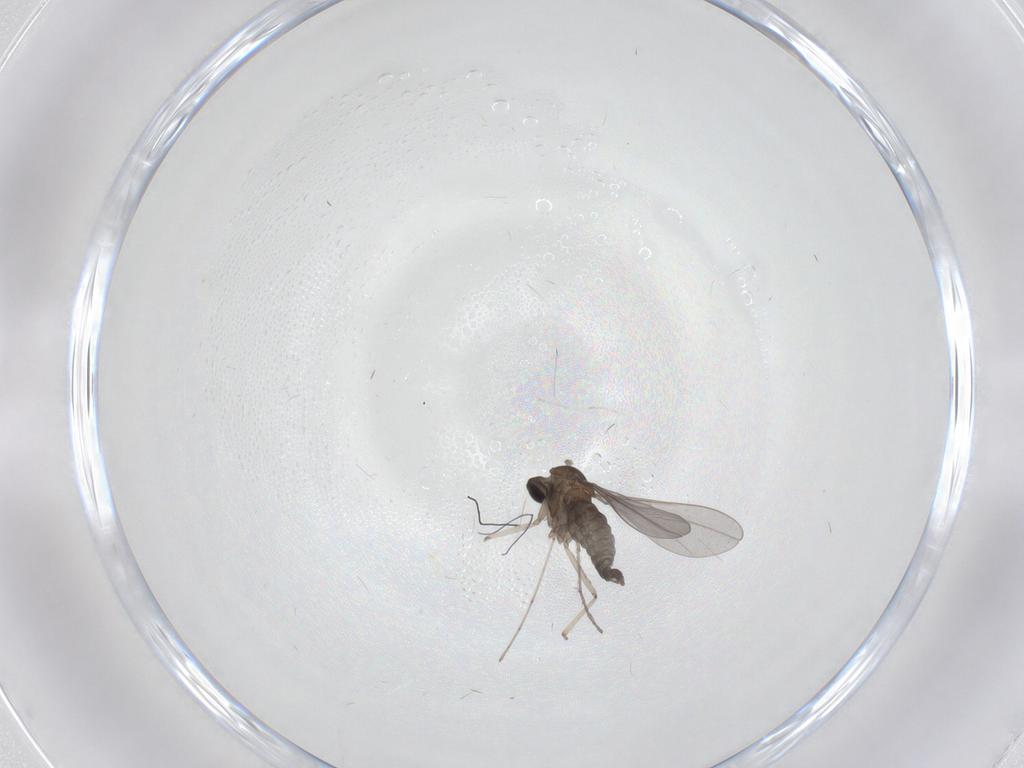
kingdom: Animalia
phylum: Arthropoda
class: Insecta
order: Diptera
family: Cecidomyiidae
